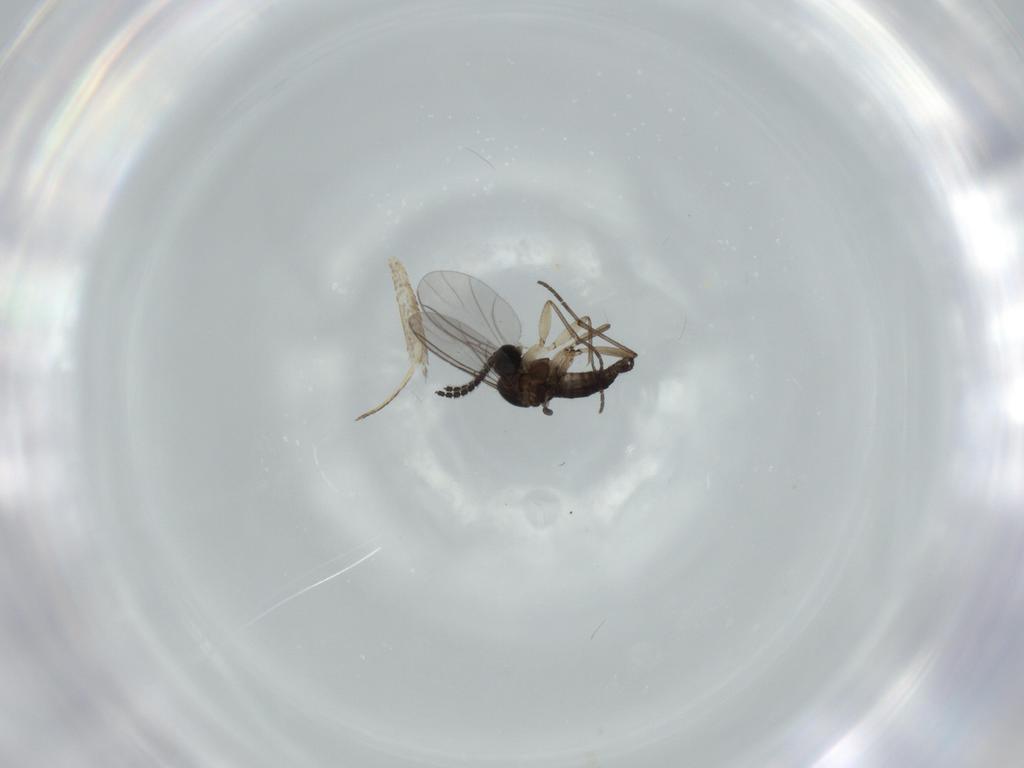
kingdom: Animalia
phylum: Arthropoda
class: Insecta
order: Diptera
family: Sciaridae
